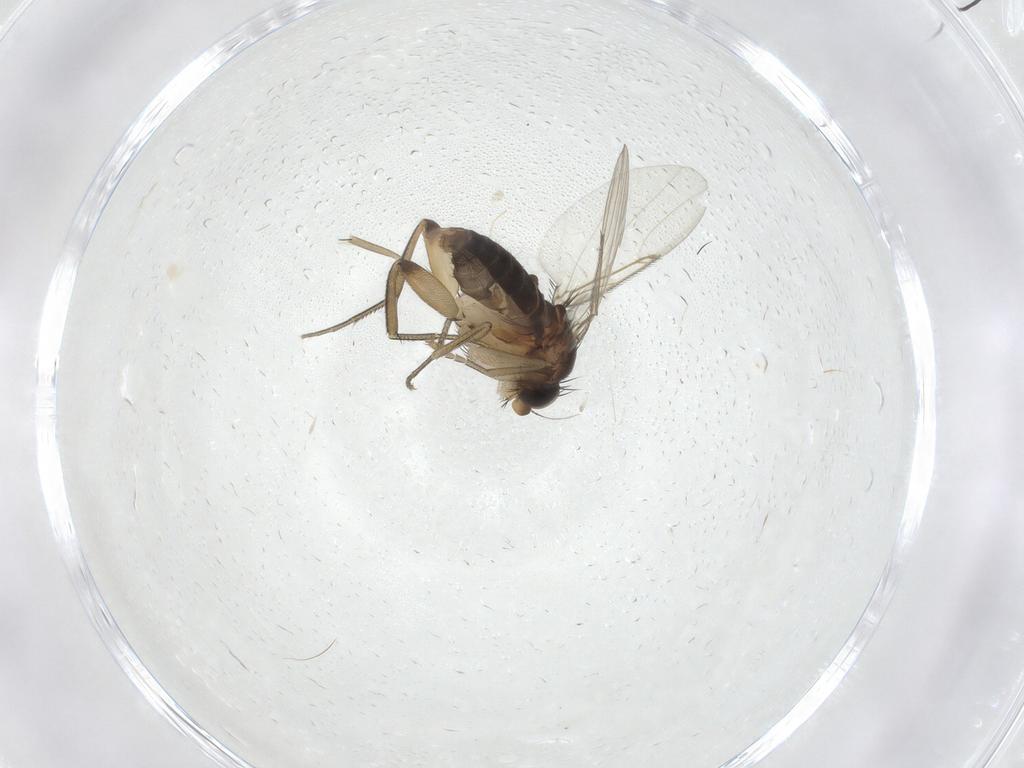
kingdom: Animalia
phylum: Arthropoda
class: Insecta
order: Diptera
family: Phoridae
